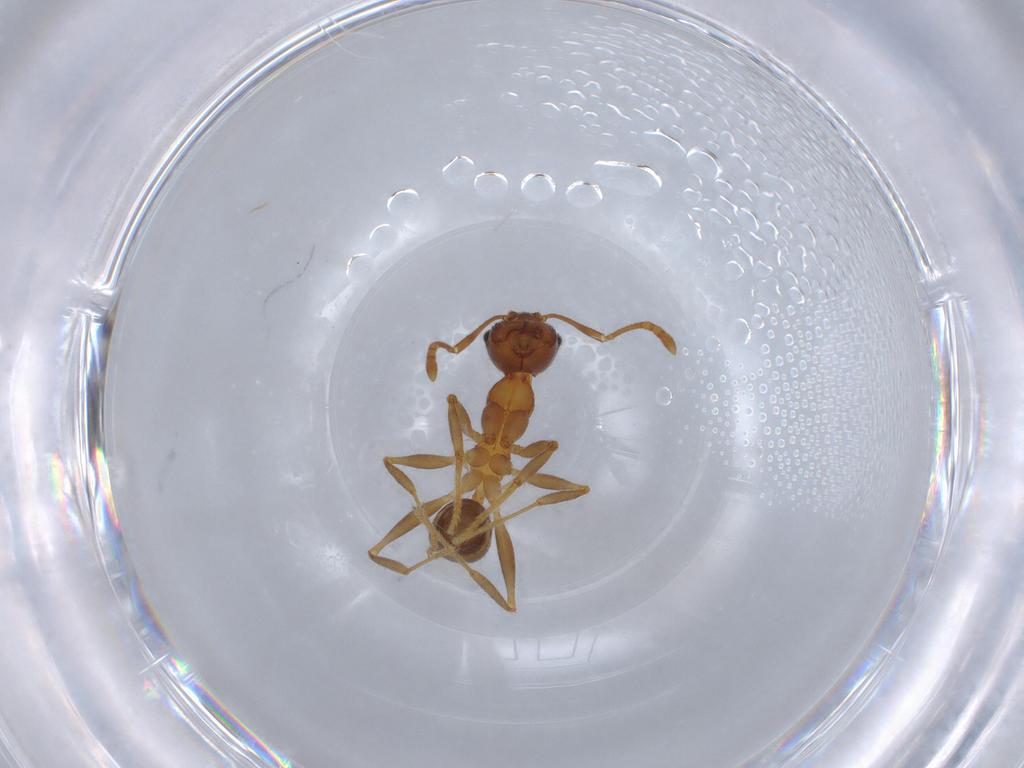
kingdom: Animalia
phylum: Arthropoda
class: Insecta
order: Hymenoptera
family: Formicidae
